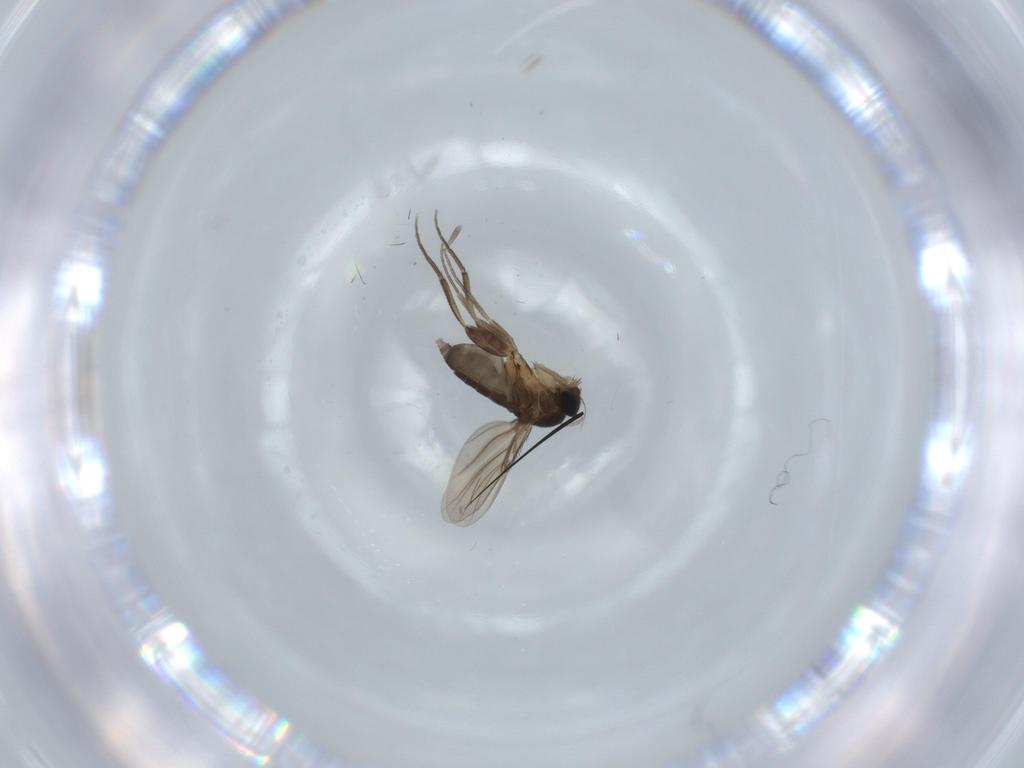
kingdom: Animalia
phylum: Arthropoda
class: Insecta
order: Diptera
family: Phoridae
